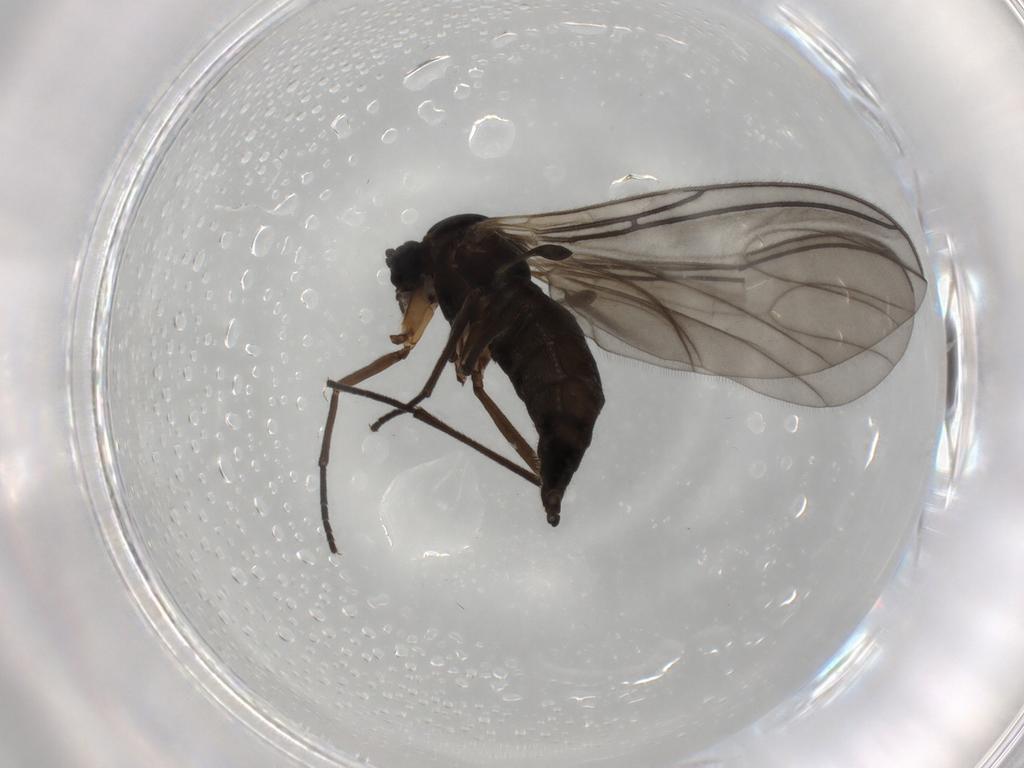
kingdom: Animalia
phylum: Arthropoda
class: Insecta
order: Diptera
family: Sciaridae
